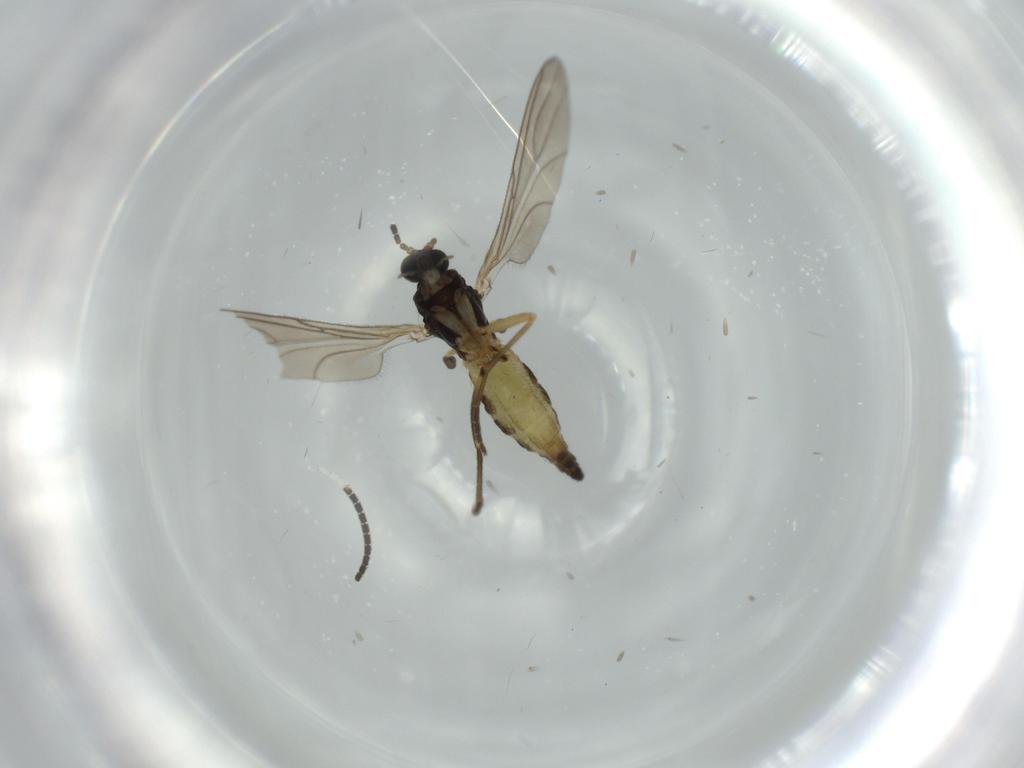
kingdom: Animalia
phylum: Arthropoda
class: Insecta
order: Diptera
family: Sciaridae
